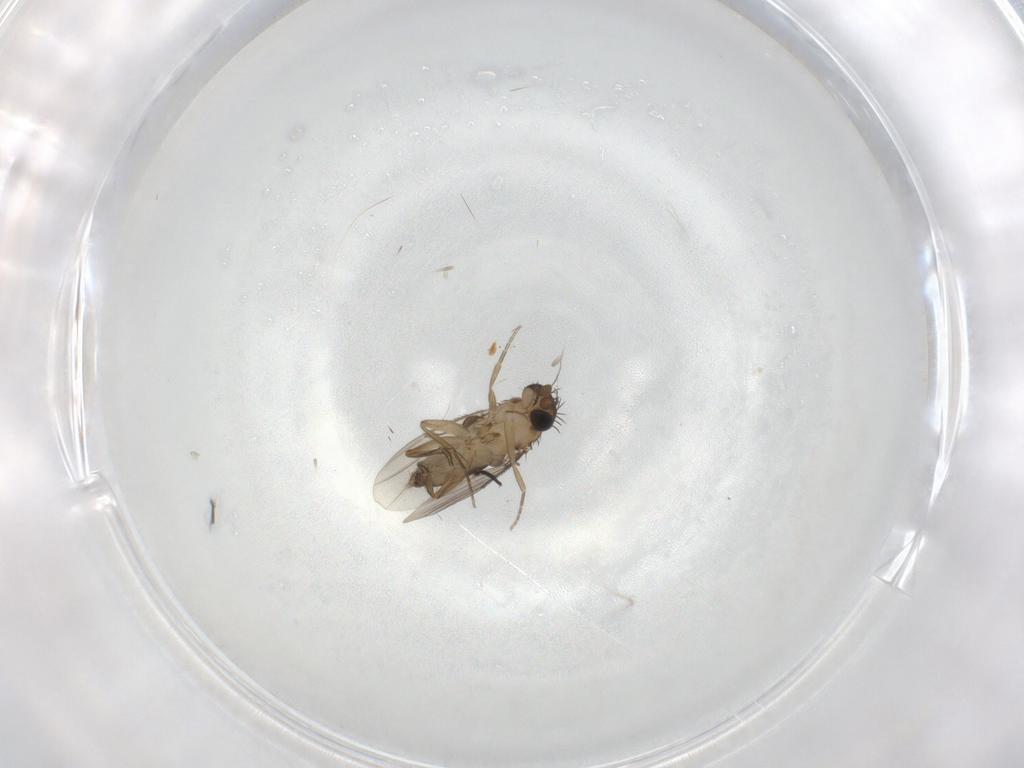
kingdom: Animalia
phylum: Arthropoda
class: Insecta
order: Diptera
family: Phoridae
